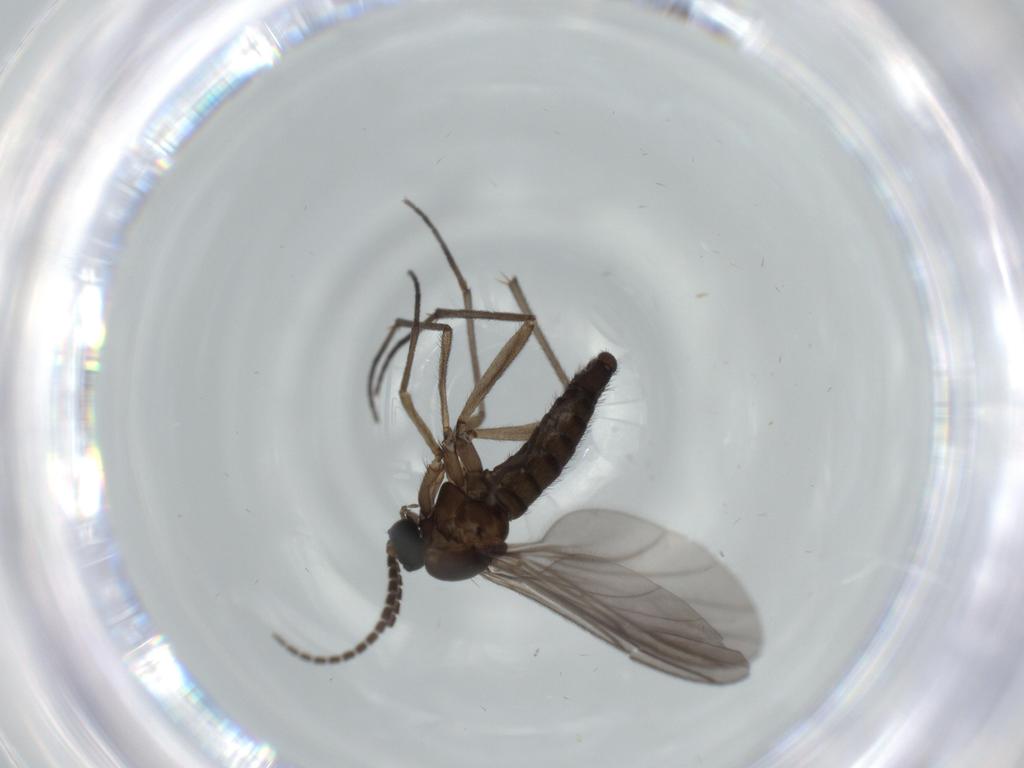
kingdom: Animalia
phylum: Arthropoda
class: Insecta
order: Diptera
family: Sciaridae
